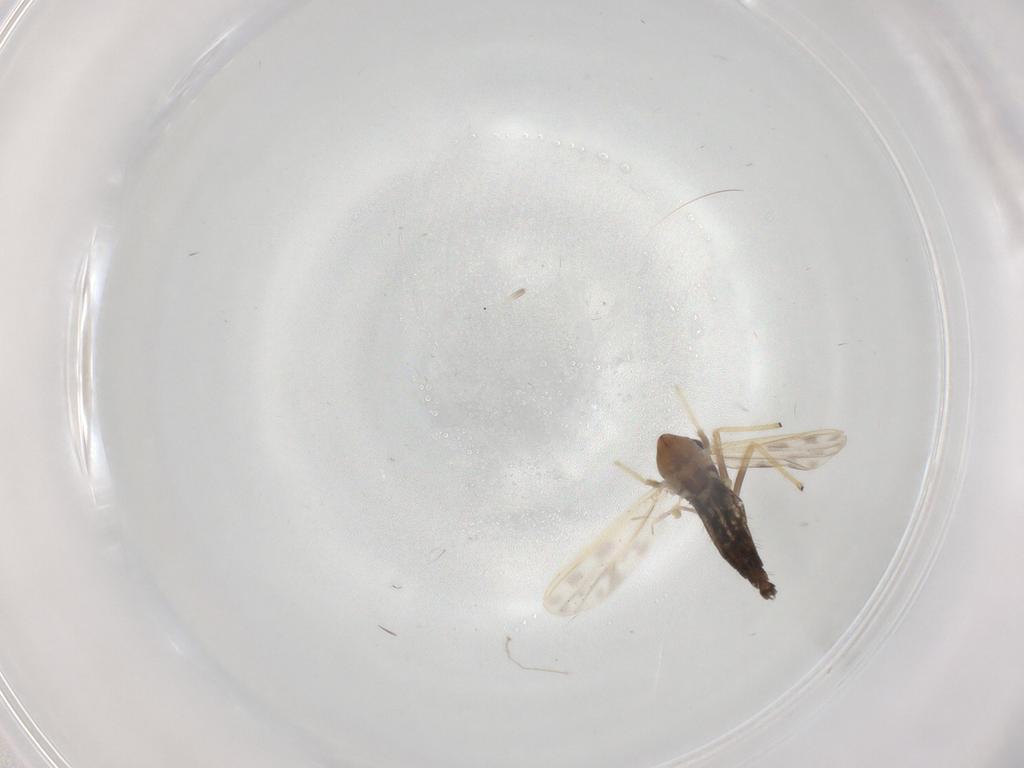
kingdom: Animalia
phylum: Arthropoda
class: Insecta
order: Diptera
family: Chironomidae
